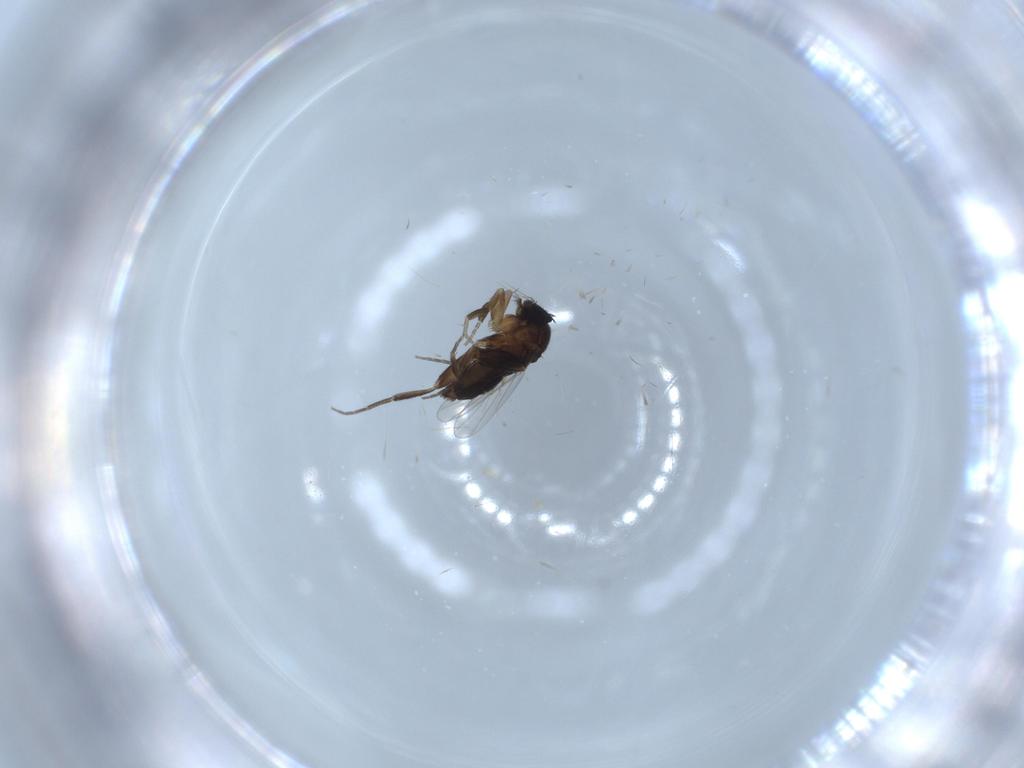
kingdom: Animalia
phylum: Arthropoda
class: Insecta
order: Diptera
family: Phoridae
